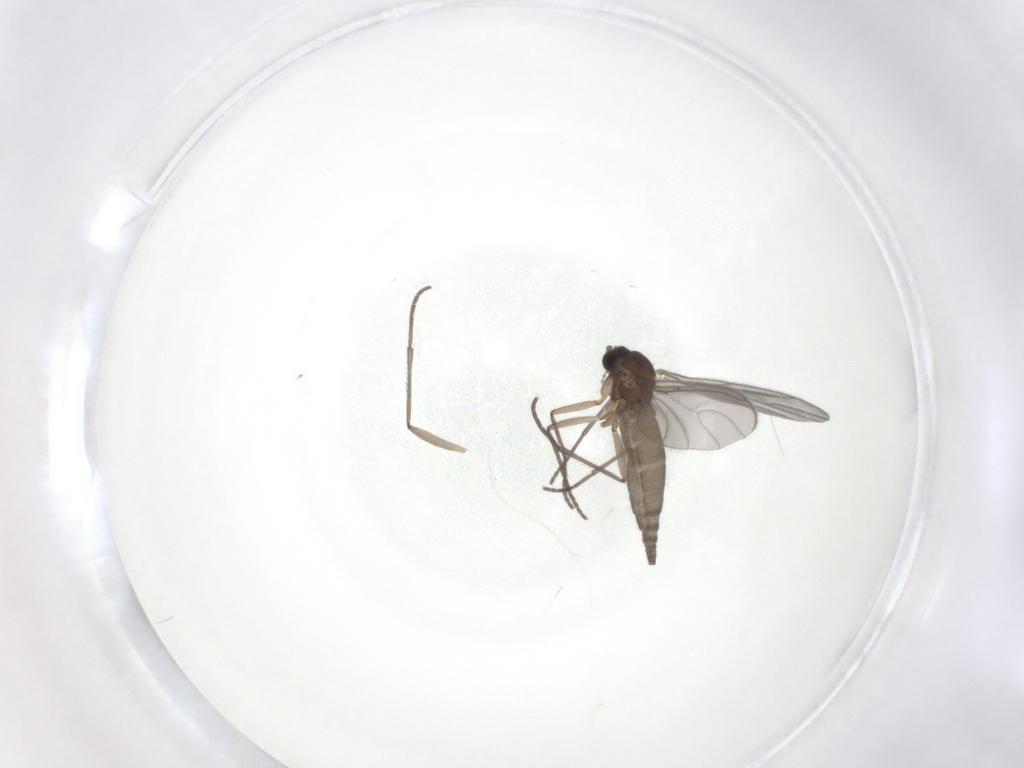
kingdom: Animalia
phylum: Arthropoda
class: Insecta
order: Diptera
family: Sciaridae
